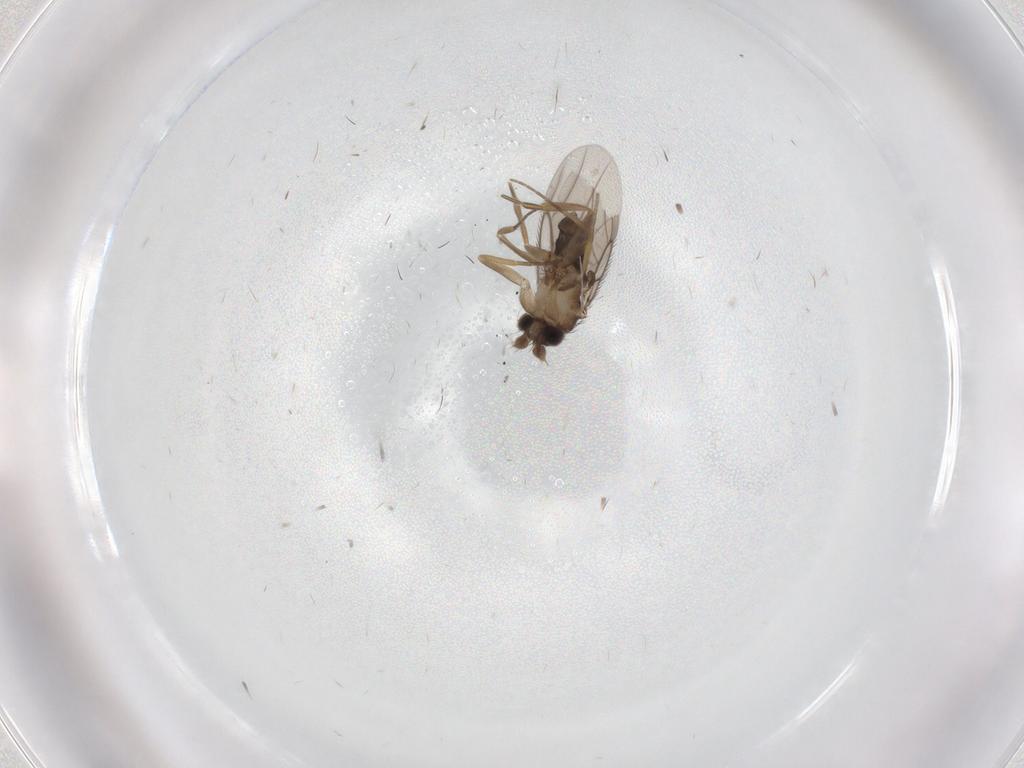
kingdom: Animalia
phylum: Arthropoda
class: Insecta
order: Diptera
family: Phoridae
